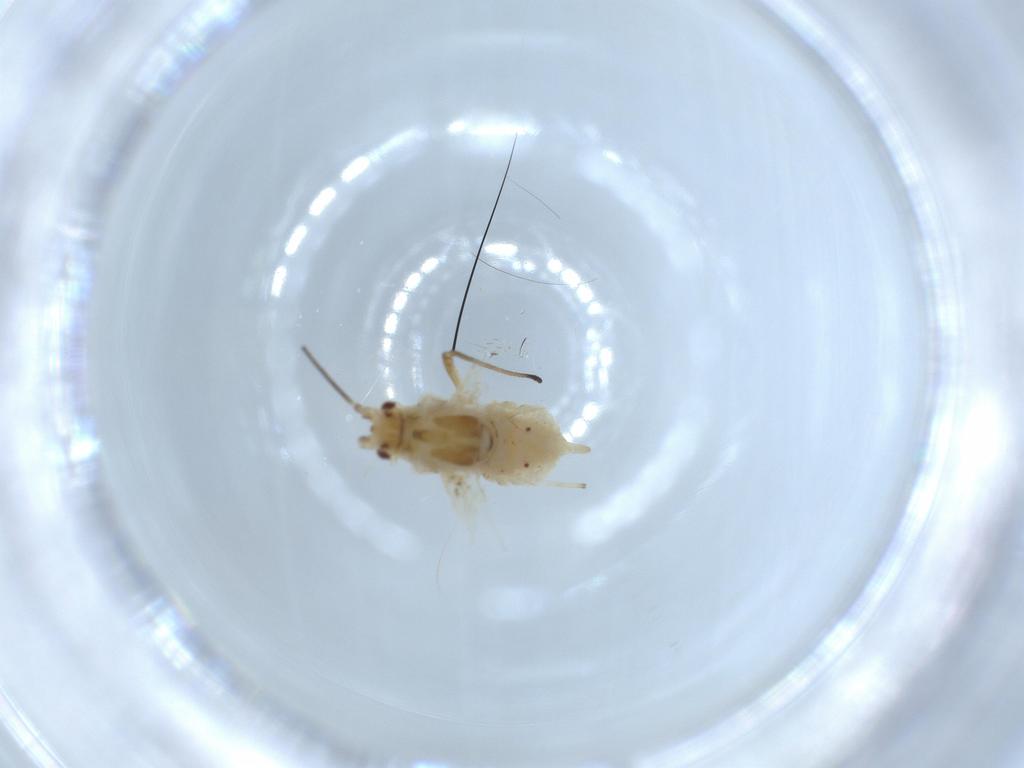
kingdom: Animalia
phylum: Arthropoda
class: Insecta
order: Hemiptera
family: Aphididae
